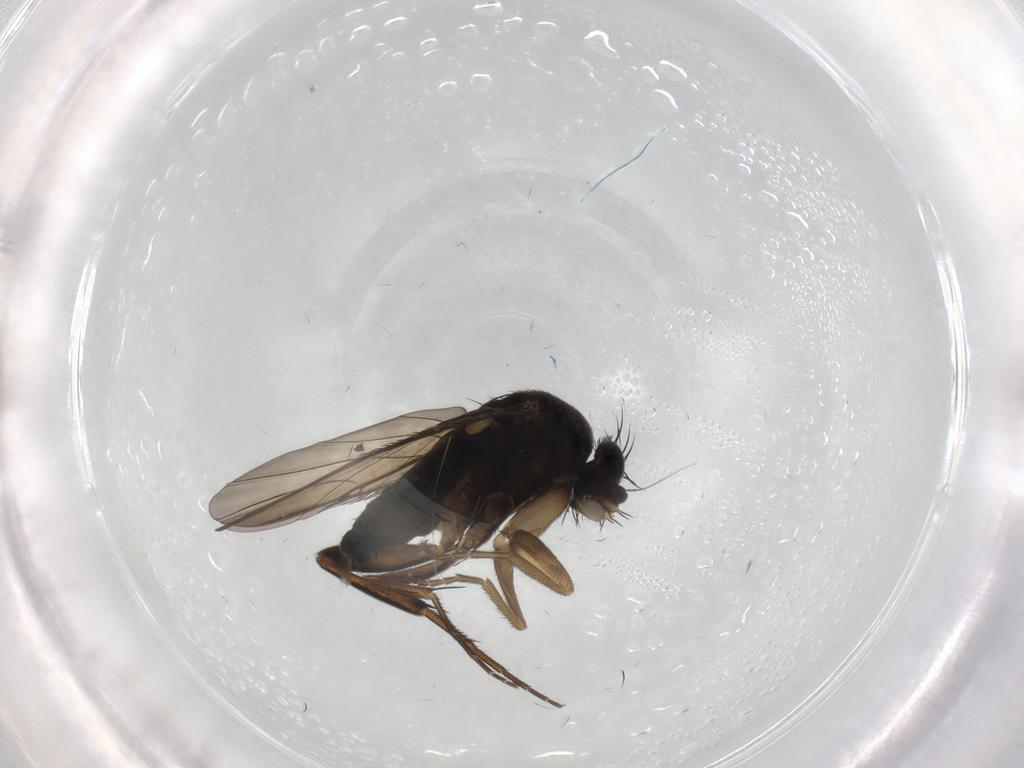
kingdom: Animalia
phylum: Arthropoda
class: Insecta
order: Diptera
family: Phoridae
